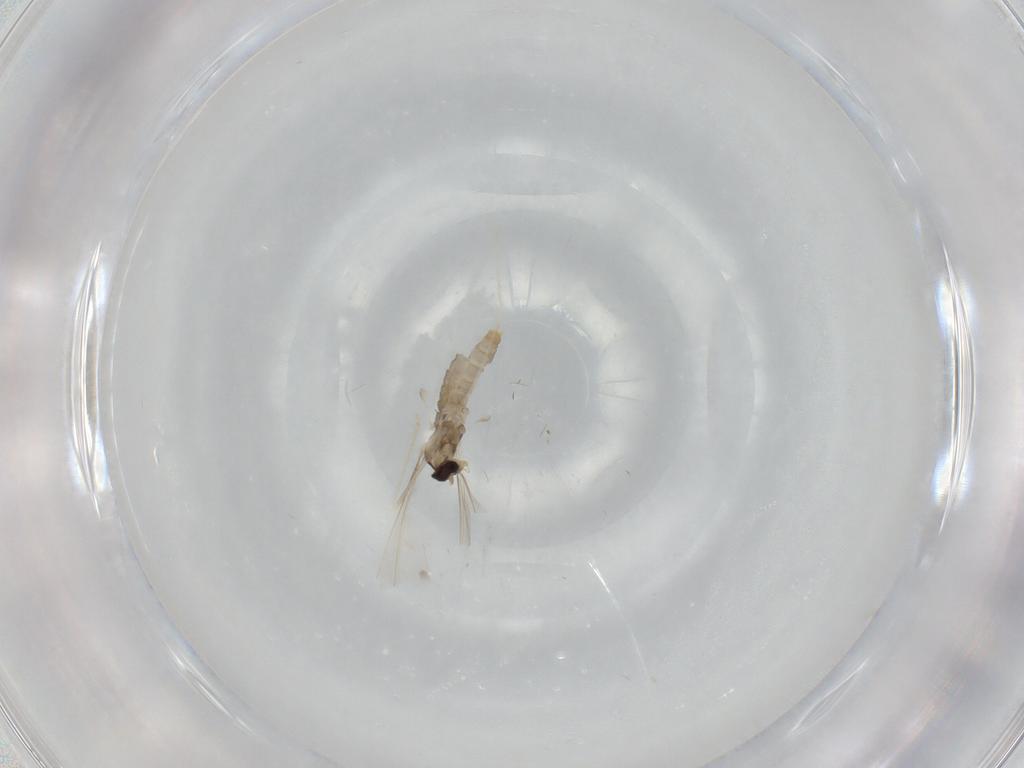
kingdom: Animalia
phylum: Arthropoda
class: Insecta
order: Diptera
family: Cecidomyiidae
